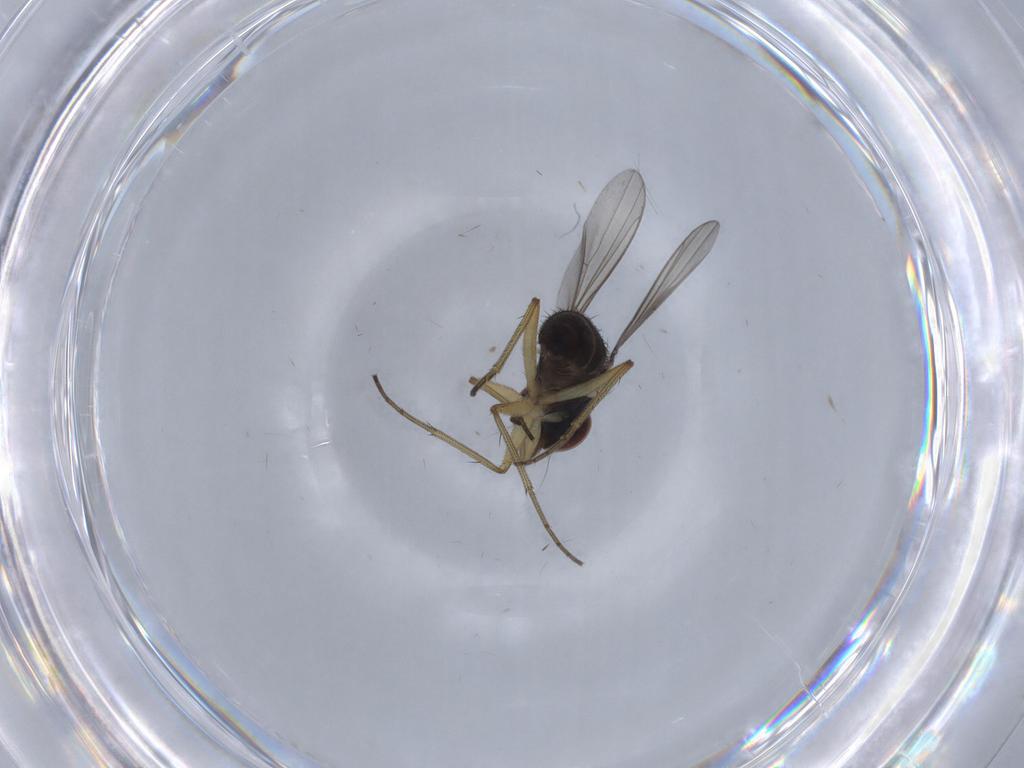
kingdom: Animalia
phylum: Arthropoda
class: Insecta
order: Diptera
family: Dolichopodidae
